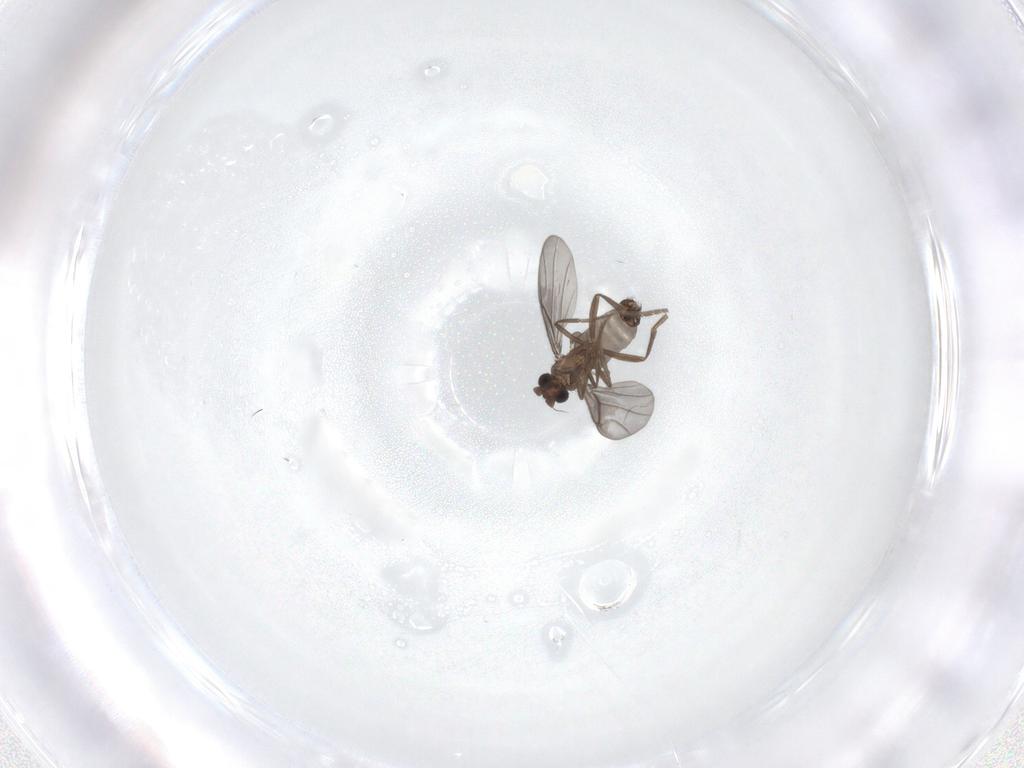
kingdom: Animalia
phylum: Arthropoda
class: Insecta
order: Diptera
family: Phoridae
